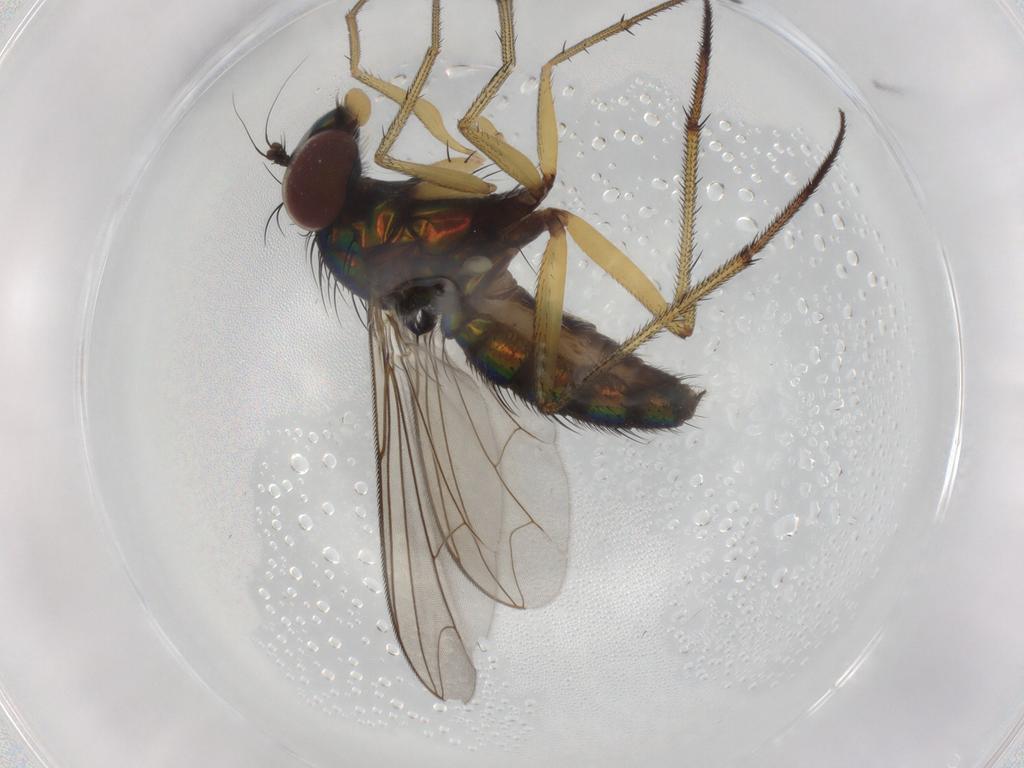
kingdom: Animalia
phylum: Arthropoda
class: Insecta
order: Diptera
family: Dolichopodidae
